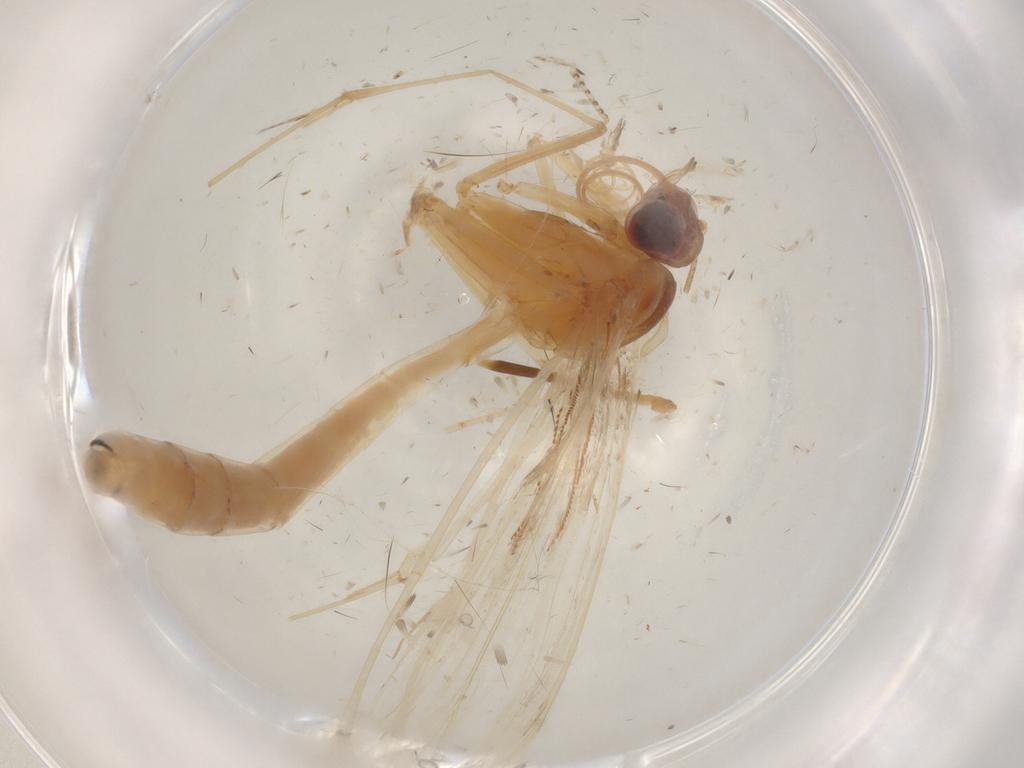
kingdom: Animalia
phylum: Arthropoda
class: Insecta
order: Lepidoptera
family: Pterophoridae
